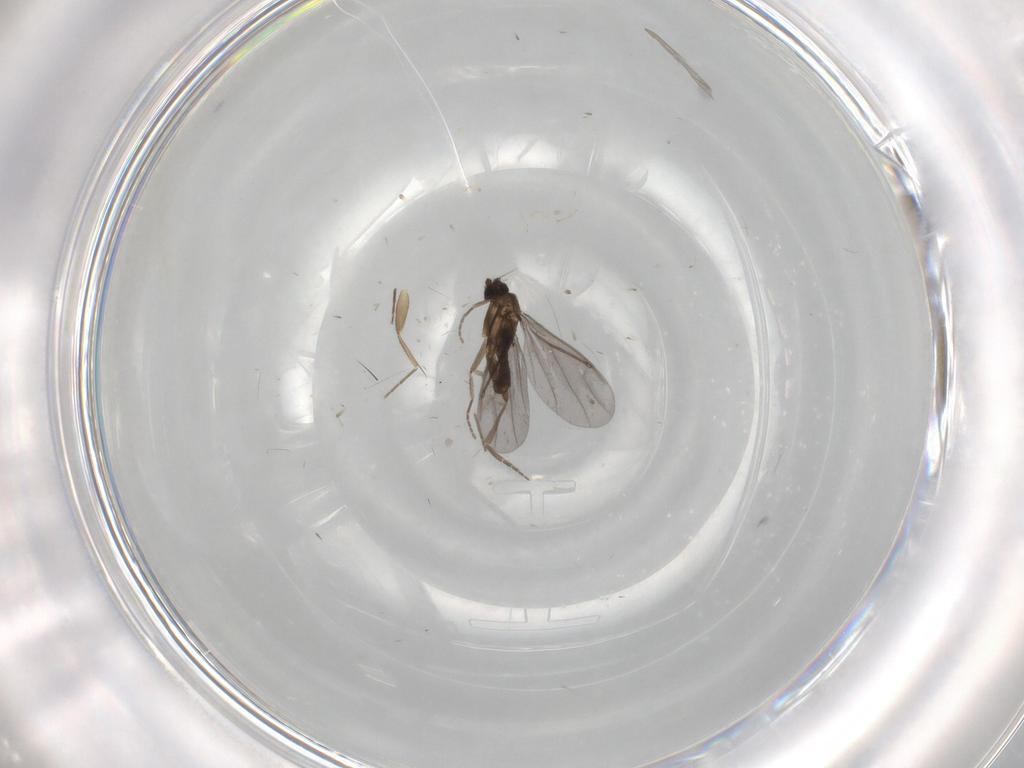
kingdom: Animalia
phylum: Arthropoda
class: Insecta
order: Diptera
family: Phoridae
